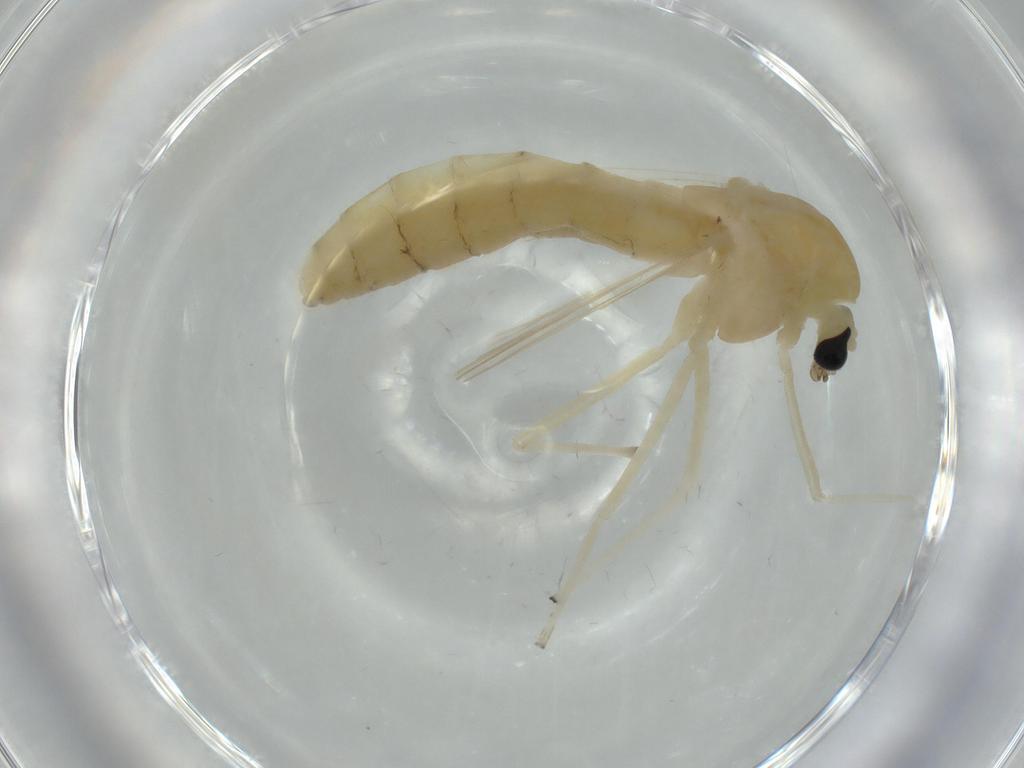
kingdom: Animalia
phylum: Arthropoda
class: Insecta
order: Diptera
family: Chironomidae
